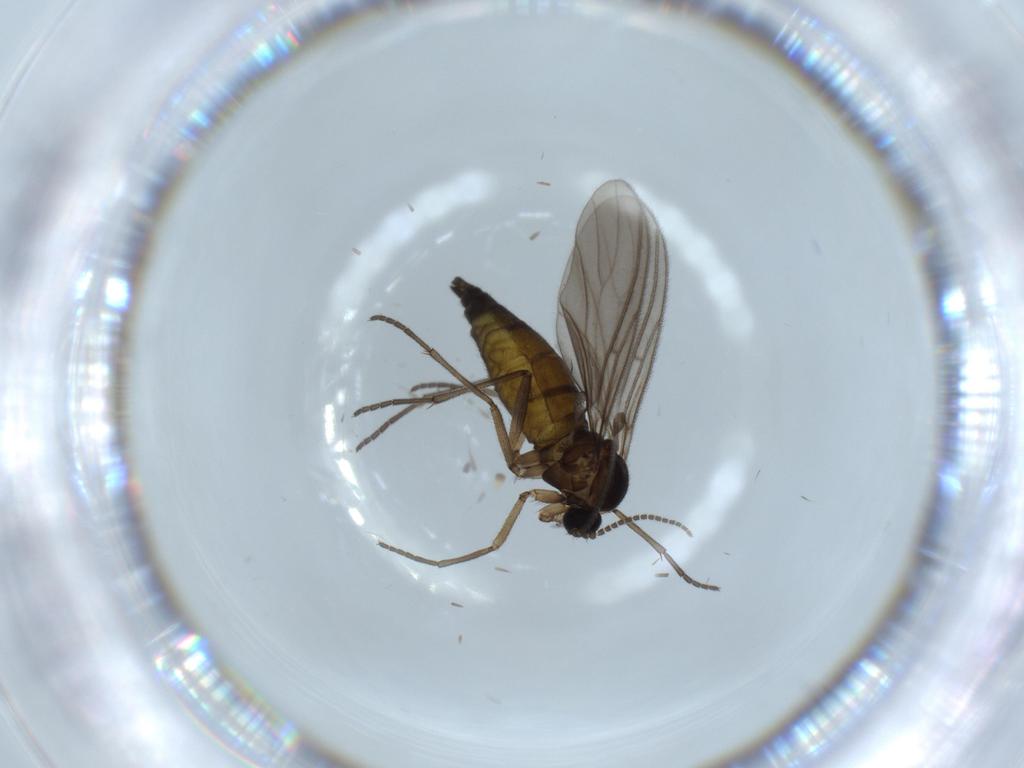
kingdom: Animalia
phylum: Arthropoda
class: Insecta
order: Diptera
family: Sciaridae
